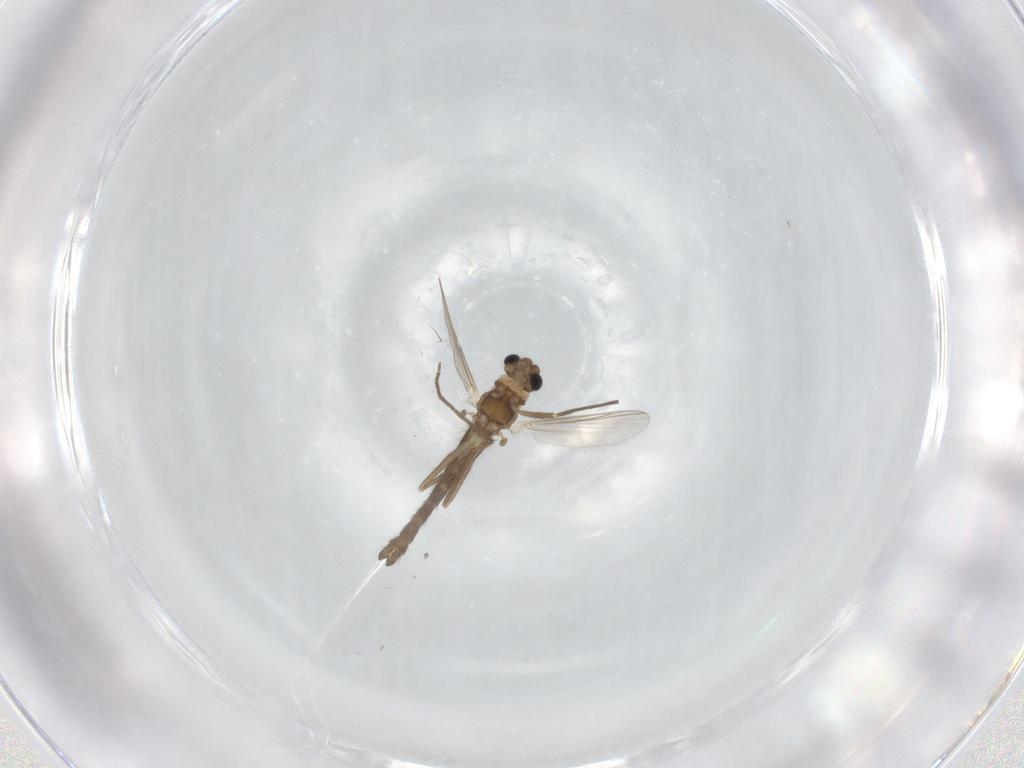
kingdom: Animalia
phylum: Arthropoda
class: Insecta
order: Diptera
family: Chironomidae
